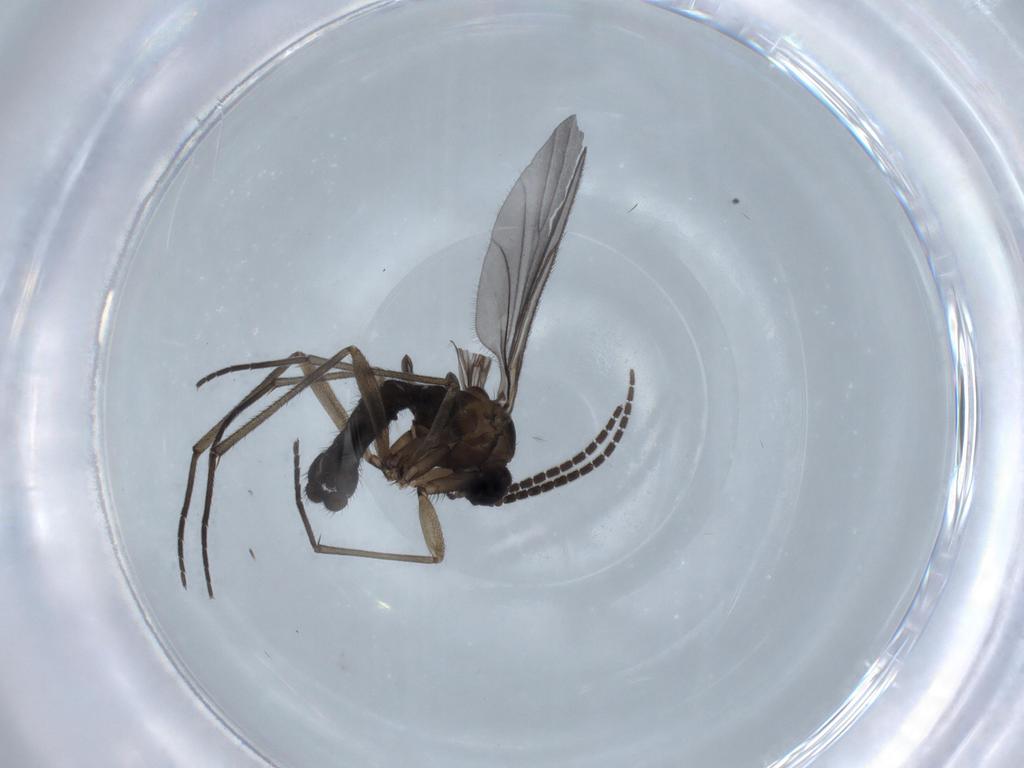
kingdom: Animalia
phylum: Arthropoda
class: Insecta
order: Diptera
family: Sciaridae
